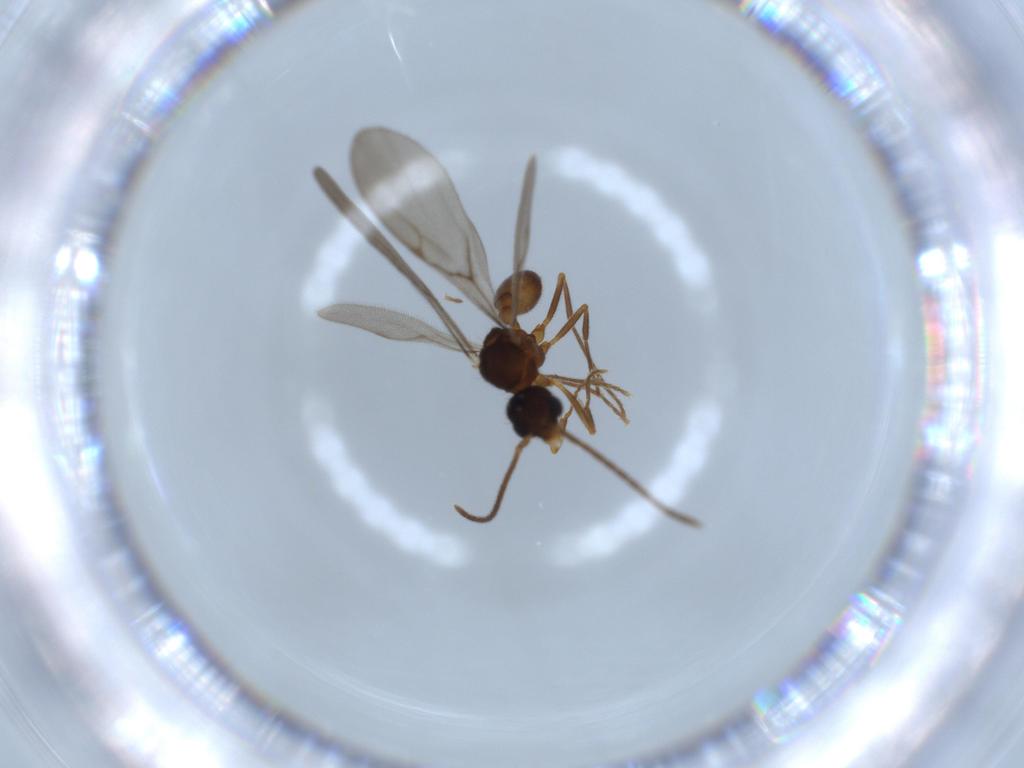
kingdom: Animalia
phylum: Arthropoda
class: Insecta
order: Hymenoptera
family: Formicidae
